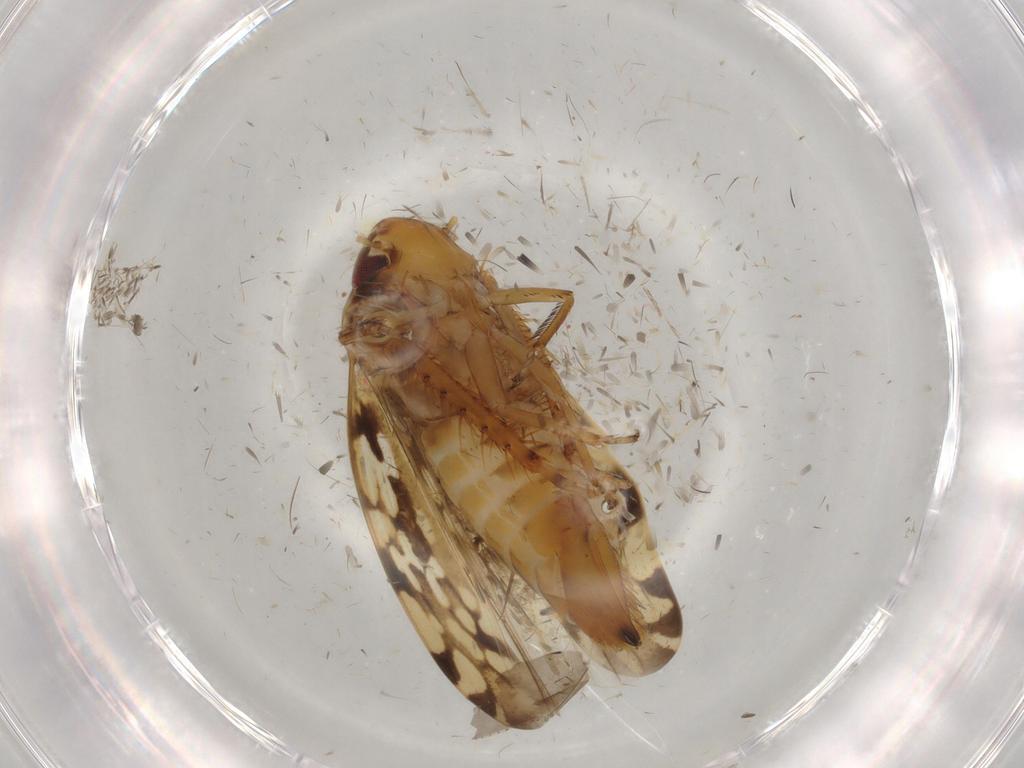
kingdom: Animalia
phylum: Arthropoda
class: Insecta
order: Hemiptera
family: Cicadellidae
